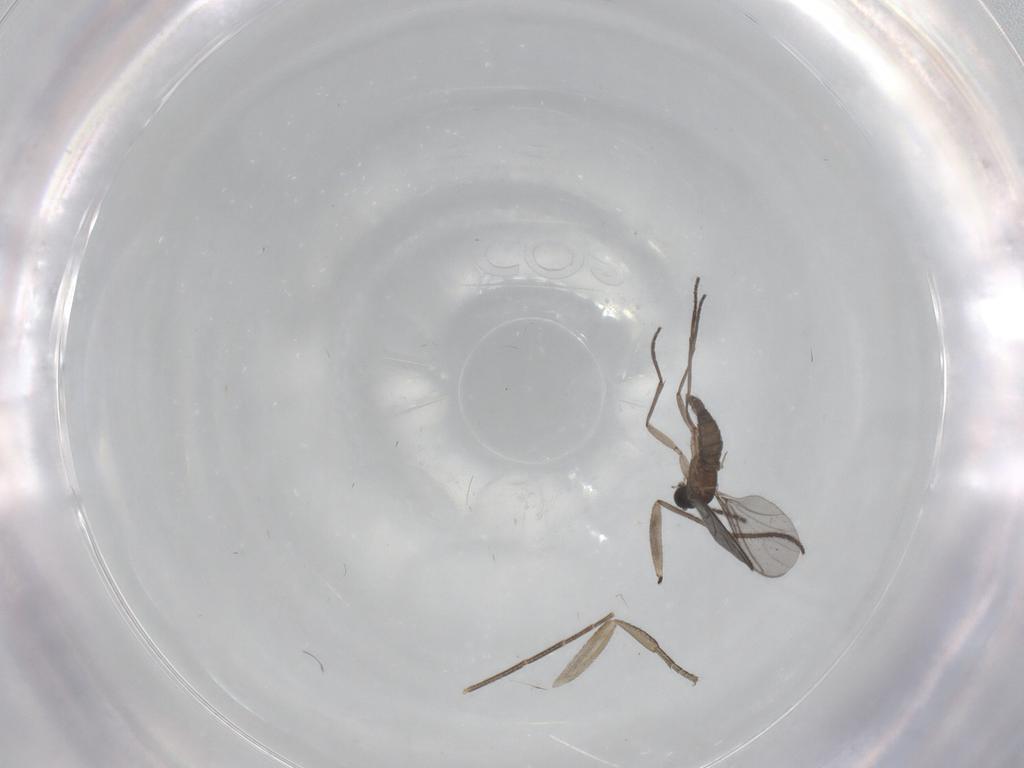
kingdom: Animalia
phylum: Arthropoda
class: Insecta
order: Diptera
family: Sciaridae
